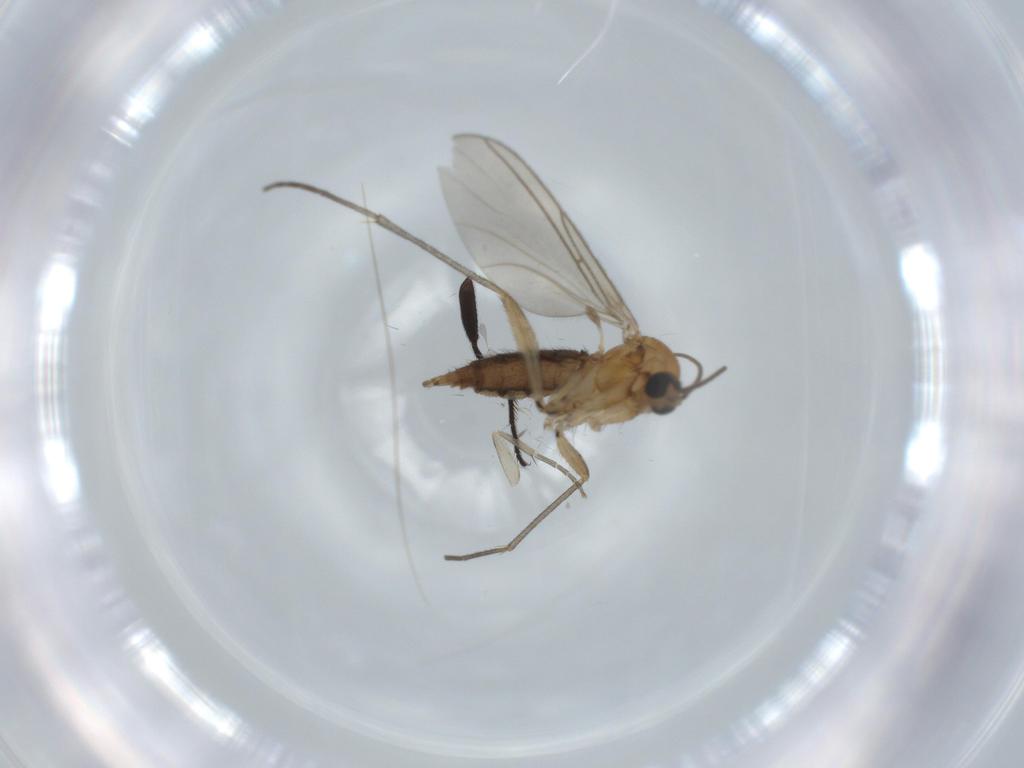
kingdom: Animalia
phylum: Arthropoda
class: Insecta
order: Diptera
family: Sciaridae
